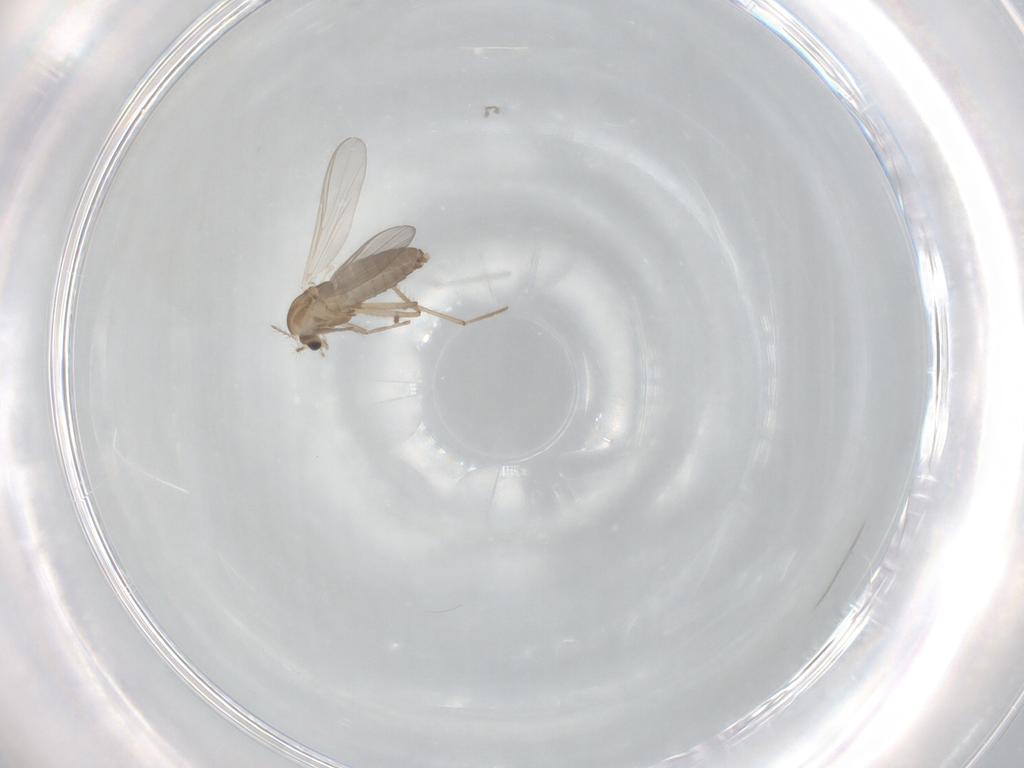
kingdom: Animalia
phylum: Arthropoda
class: Insecta
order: Diptera
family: Chironomidae
